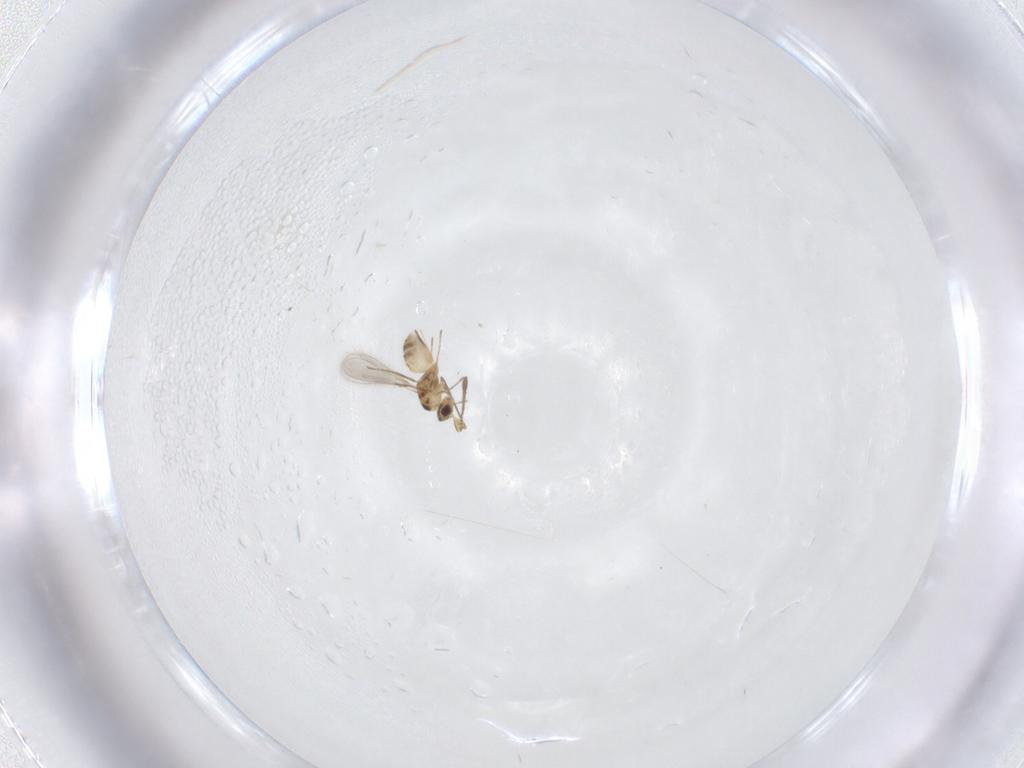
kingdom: Animalia
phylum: Arthropoda
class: Insecta
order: Hymenoptera
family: Mymaridae
